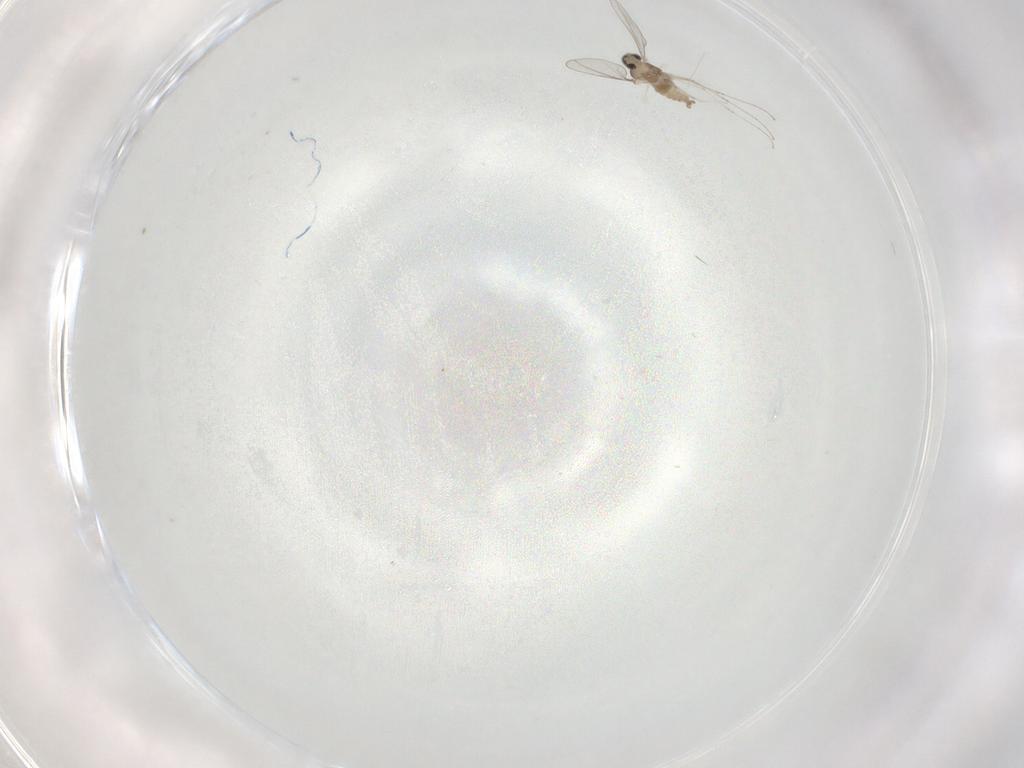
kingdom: Animalia
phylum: Arthropoda
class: Insecta
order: Diptera
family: Cecidomyiidae
